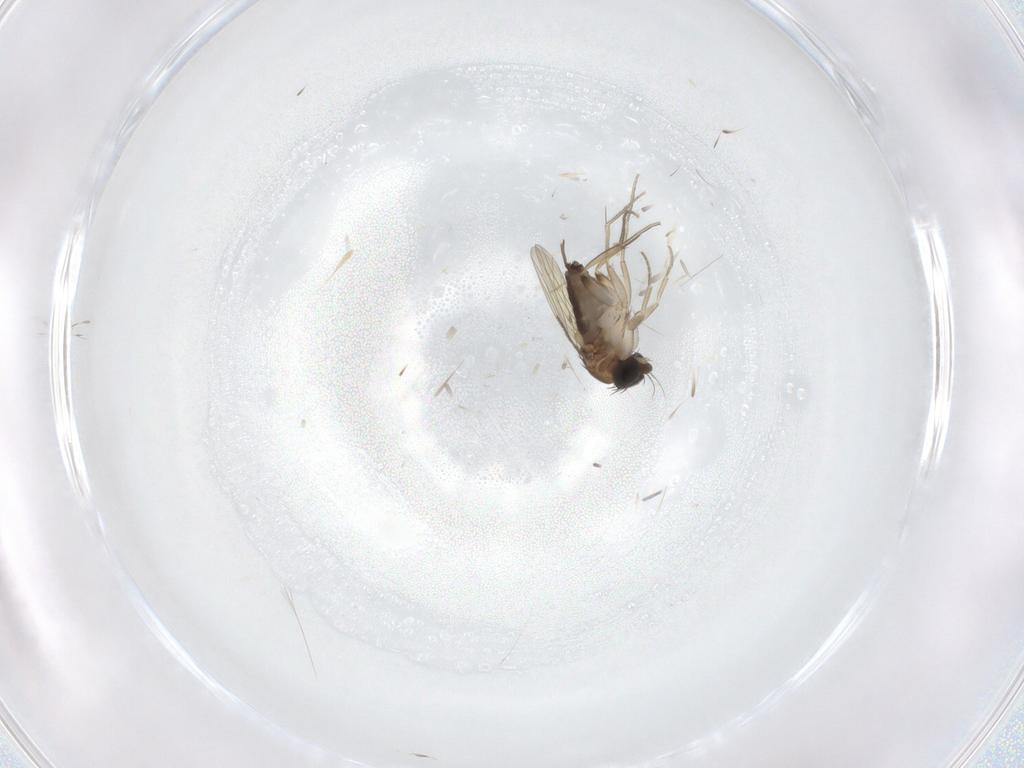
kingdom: Animalia
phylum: Arthropoda
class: Insecta
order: Diptera
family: Phoridae
